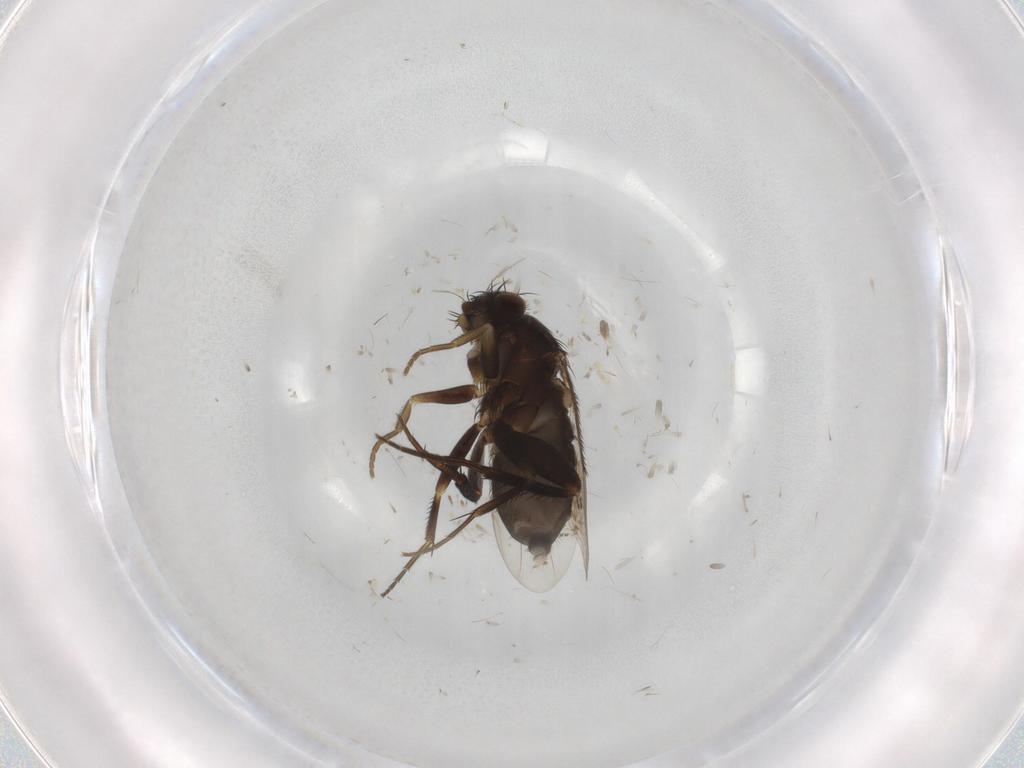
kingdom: Animalia
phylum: Arthropoda
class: Insecta
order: Diptera
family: Phoridae
